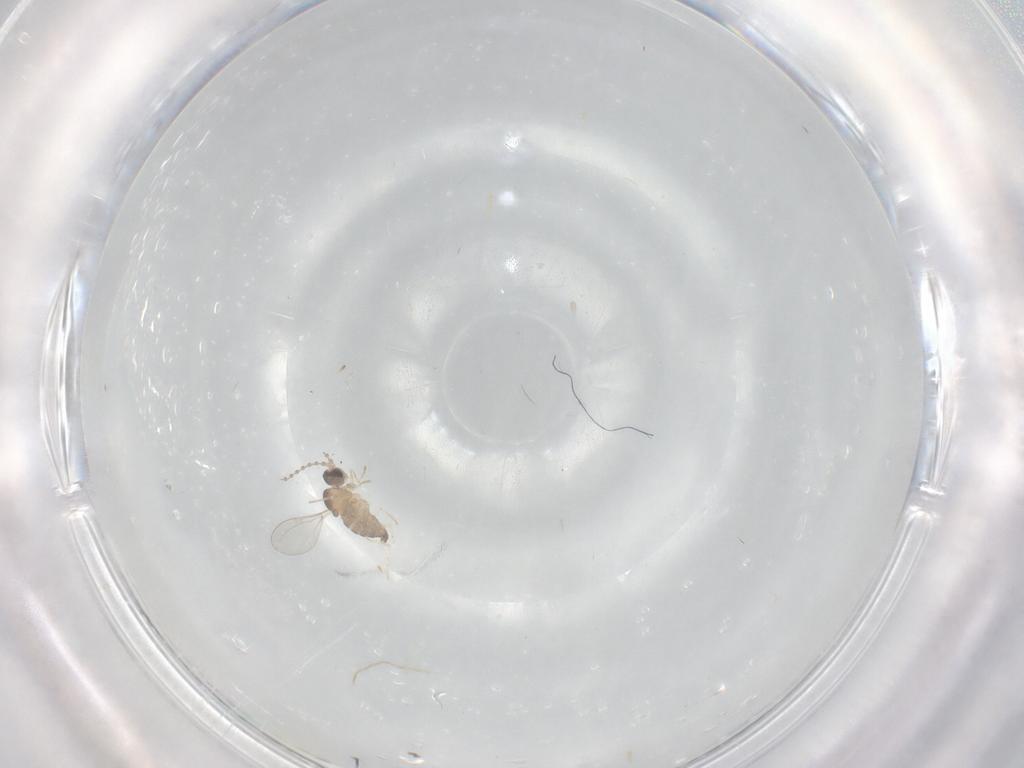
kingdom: Animalia
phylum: Arthropoda
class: Insecta
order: Diptera
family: Cecidomyiidae
